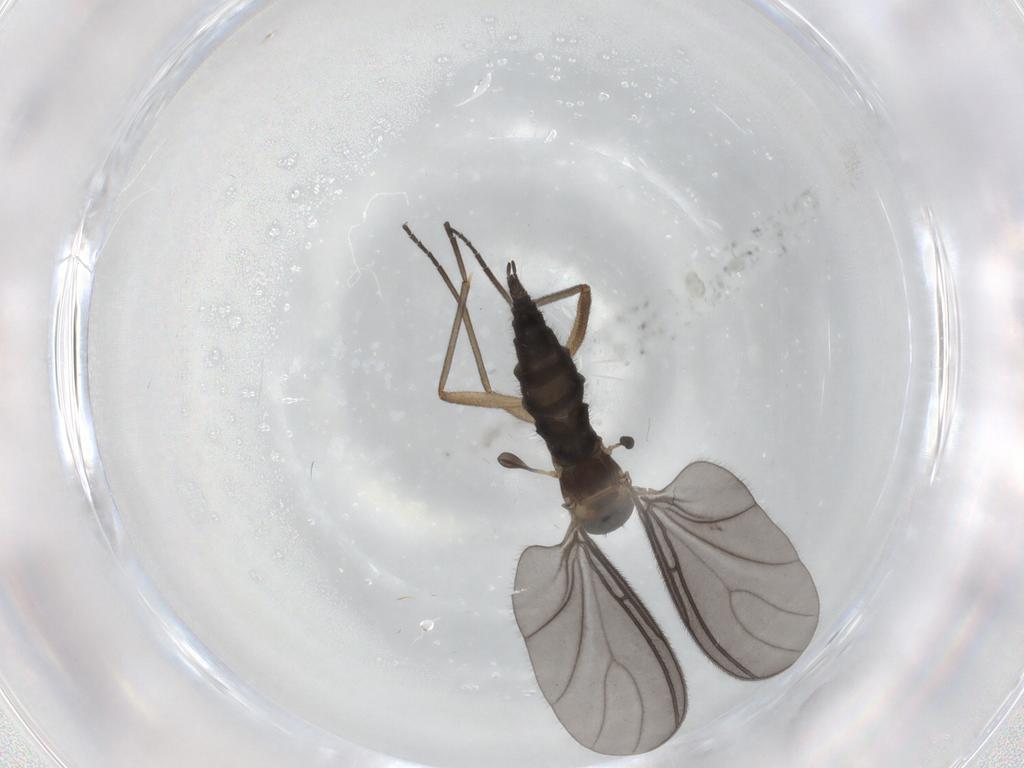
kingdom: Animalia
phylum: Arthropoda
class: Insecta
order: Diptera
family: Sciaridae
